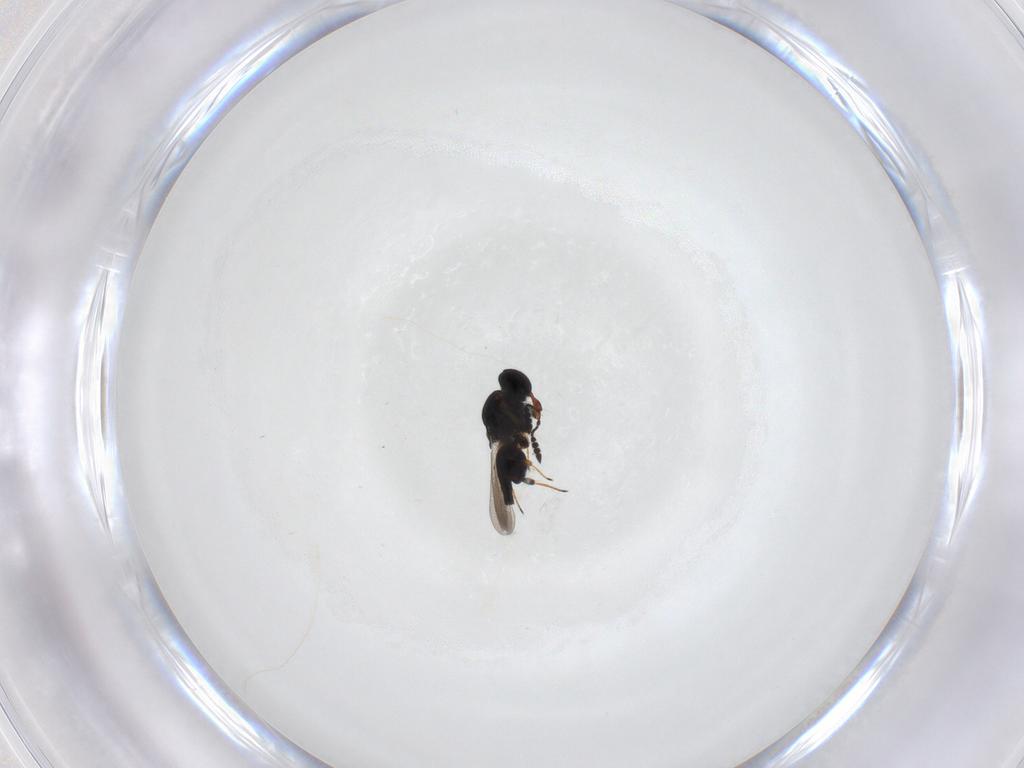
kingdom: Animalia
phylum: Arthropoda
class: Insecta
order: Hymenoptera
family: Platygastridae
